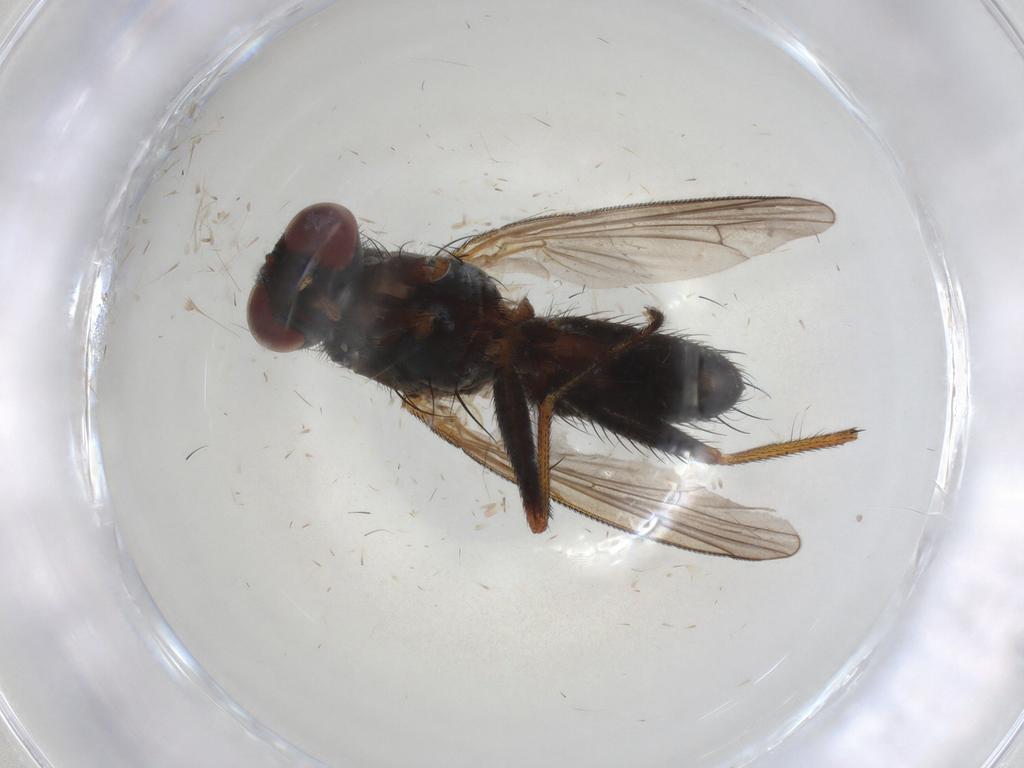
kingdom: Animalia
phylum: Arthropoda
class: Insecta
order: Diptera
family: Muscidae
